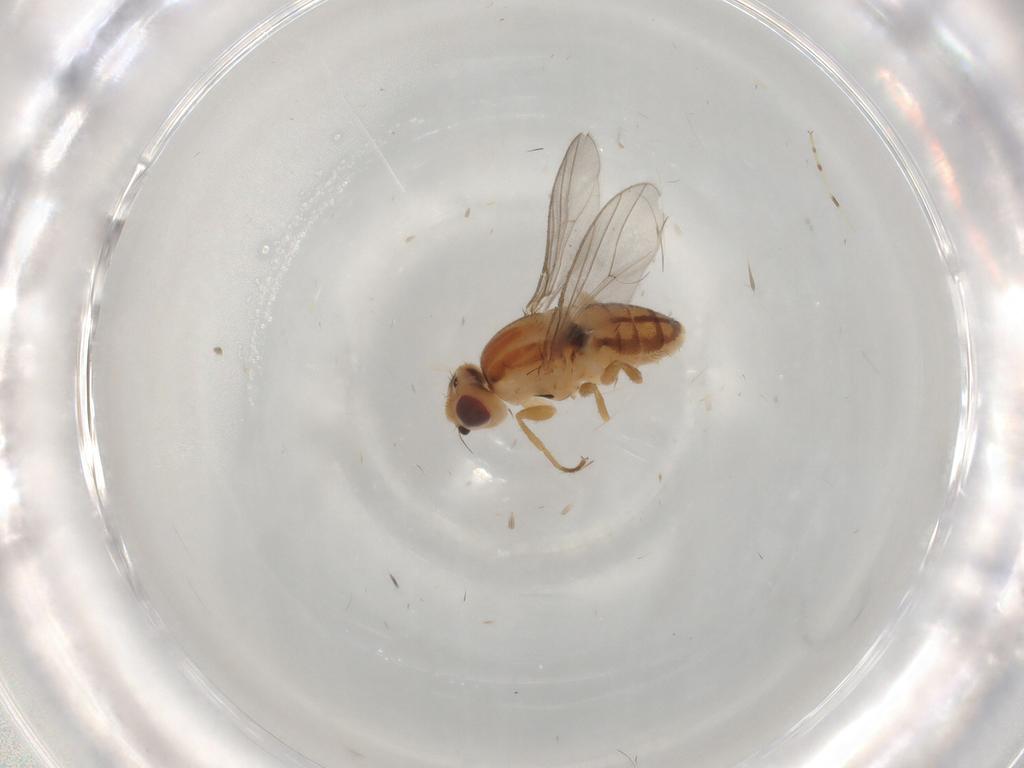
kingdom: Animalia
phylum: Arthropoda
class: Insecta
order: Diptera
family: Chloropidae
